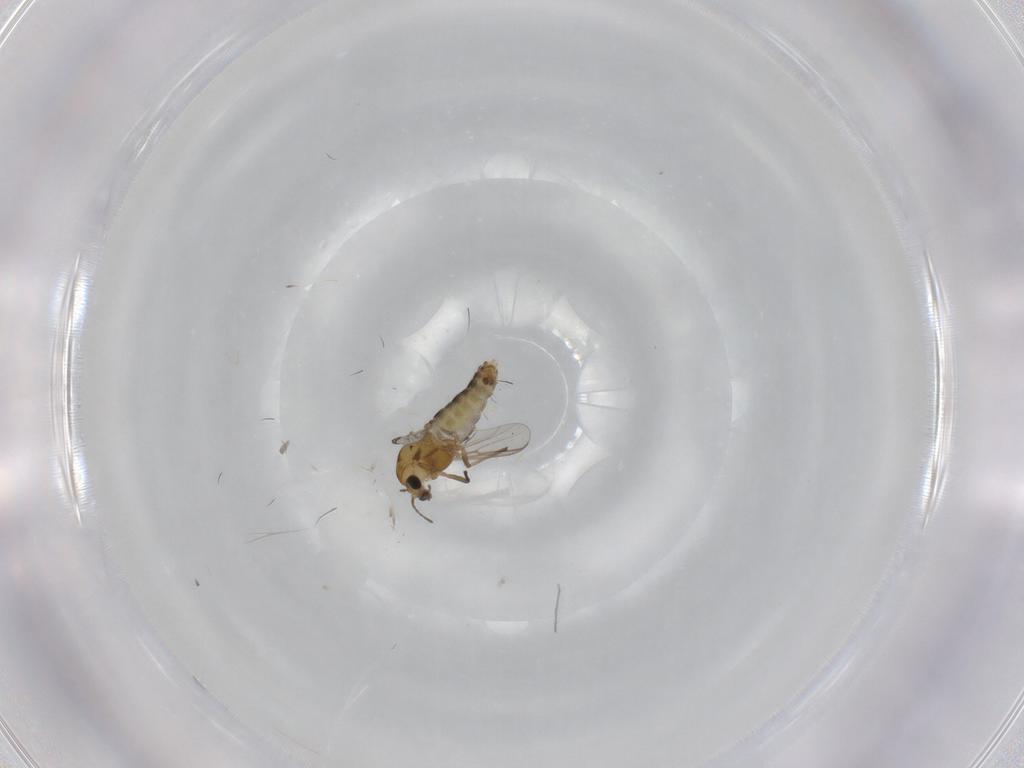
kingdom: Animalia
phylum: Arthropoda
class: Insecta
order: Diptera
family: Chironomidae
